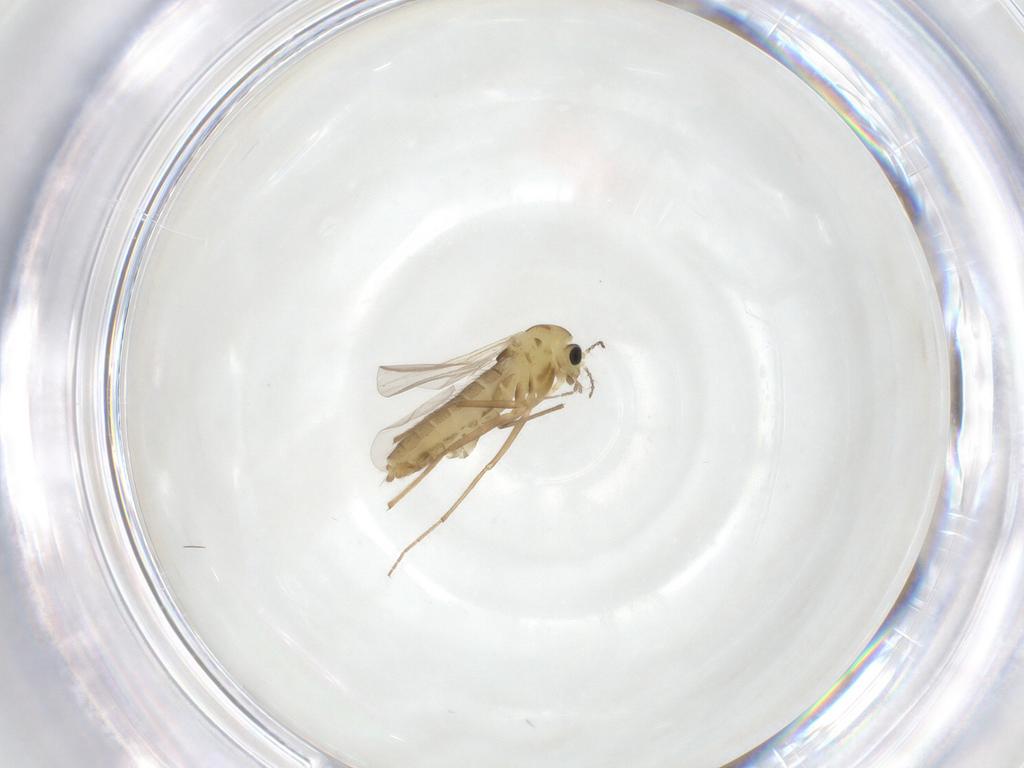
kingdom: Animalia
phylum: Arthropoda
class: Insecta
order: Diptera
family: Chironomidae
